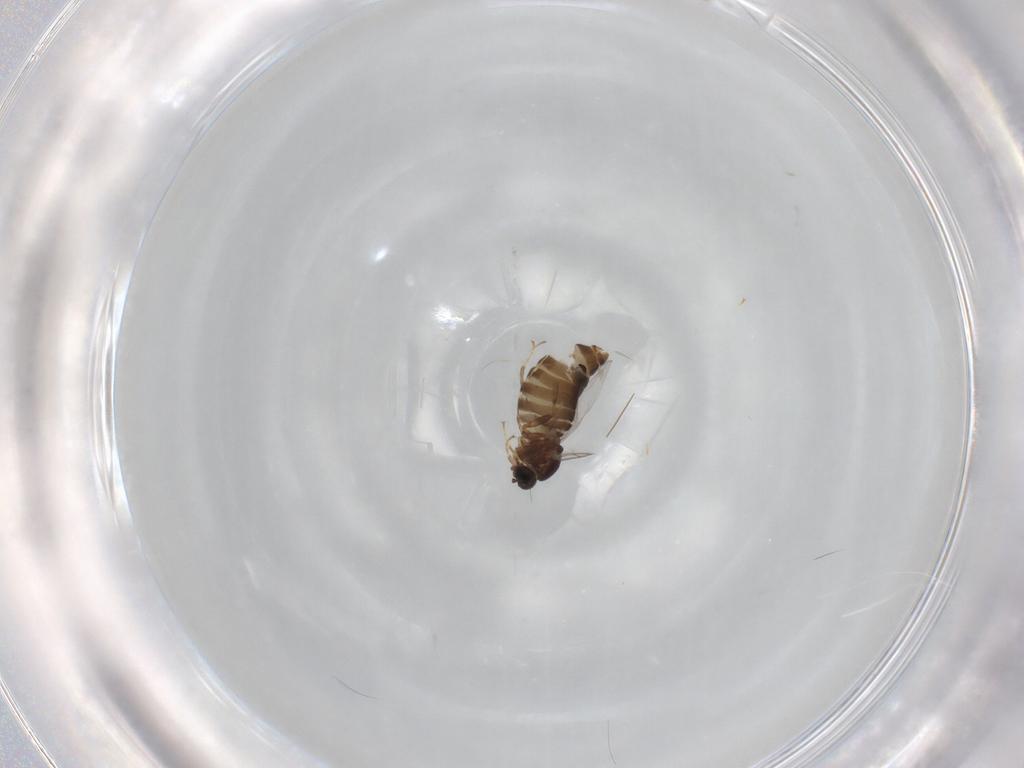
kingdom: Animalia
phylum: Arthropoda
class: Insecta
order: Diptera
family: Scatopsidae
